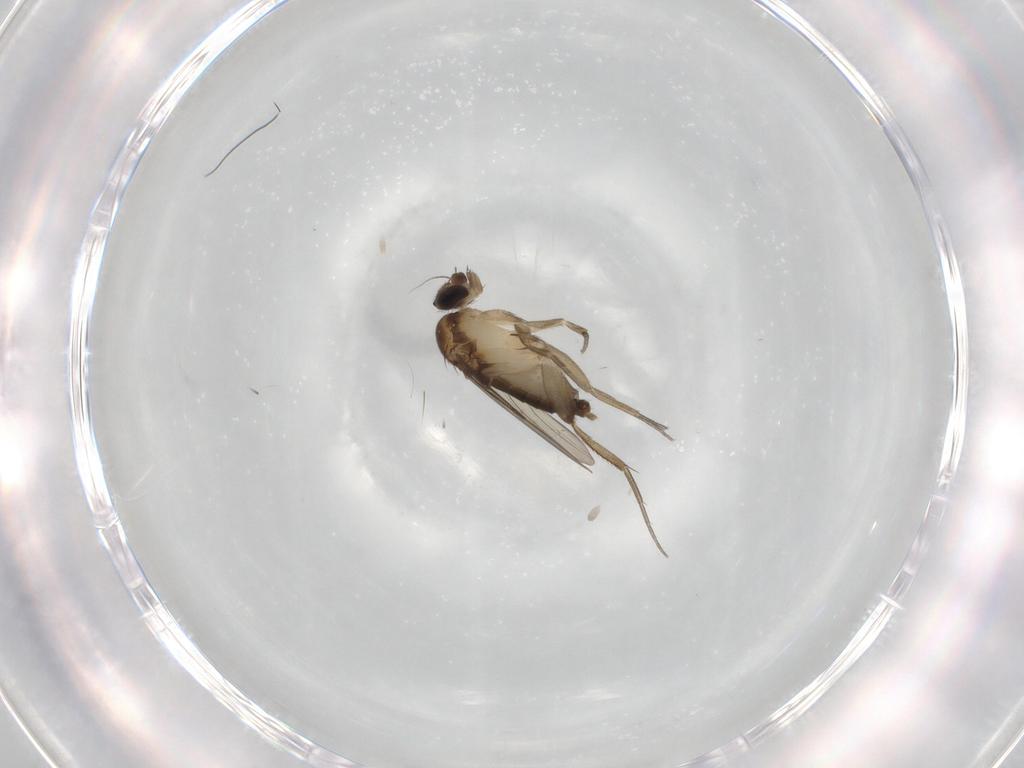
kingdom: Animalia
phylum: Arthropoda
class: Insecta
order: Diptera
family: Phoridae
